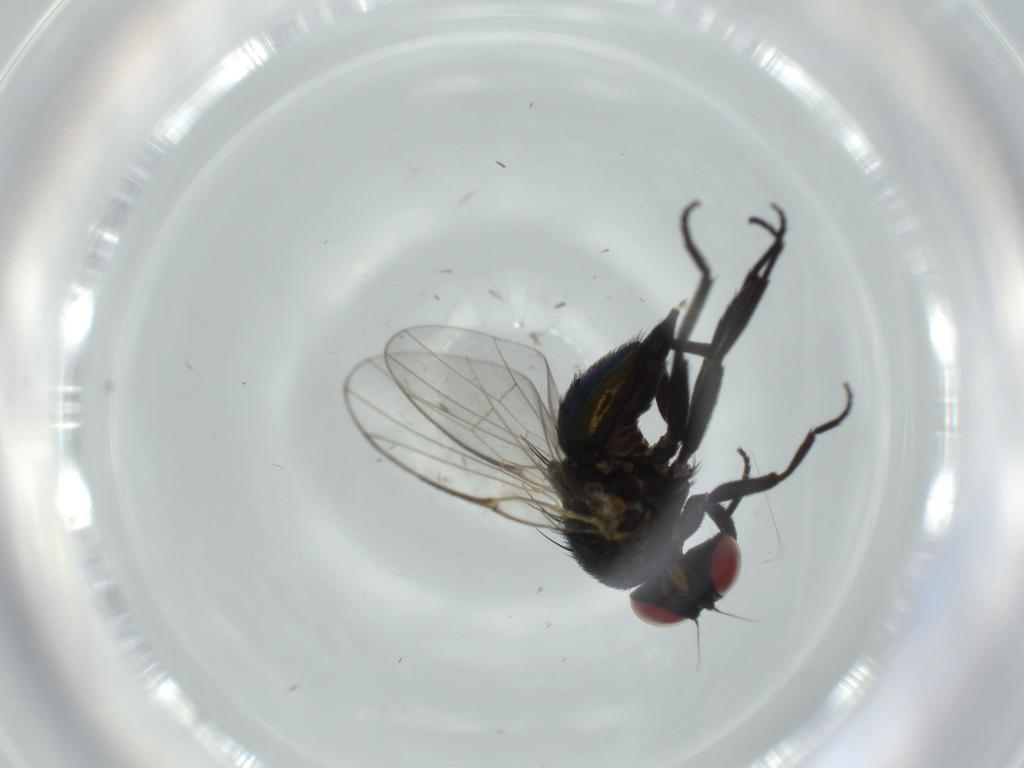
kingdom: Animalia
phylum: Arthropoda
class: Insecta
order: Diptera
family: Agromyzidae
